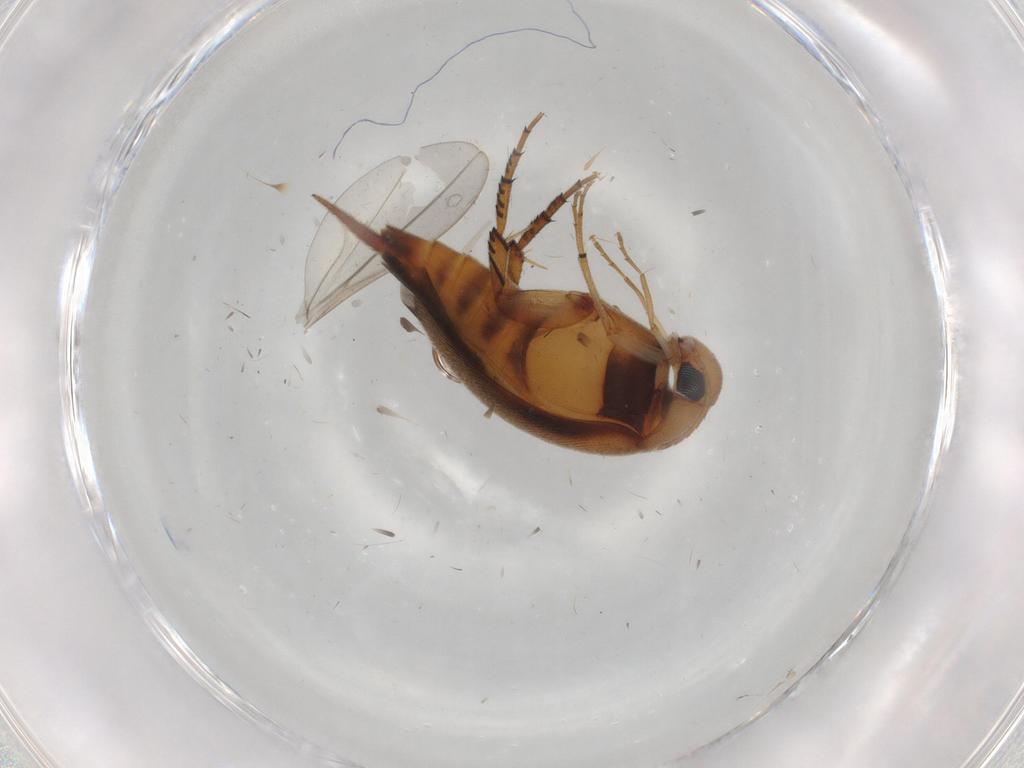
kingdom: Animalia
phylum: Arthropoda
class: Insecta
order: Coleoptera
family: Mordellidae
